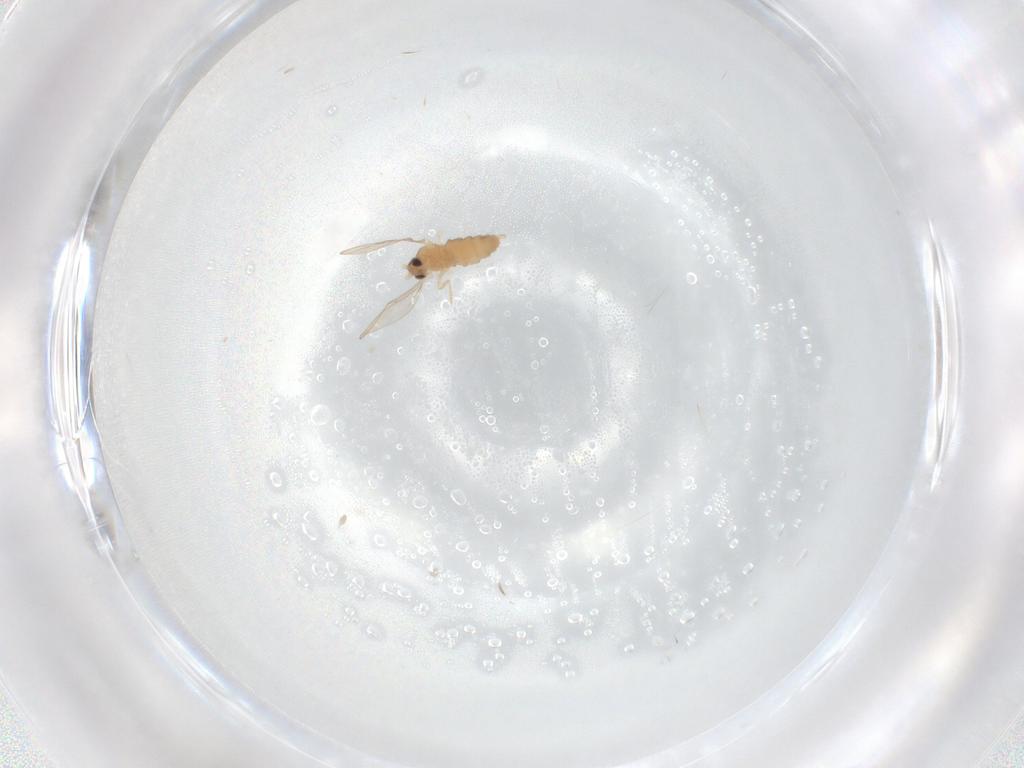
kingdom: Animalia
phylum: Arthropoda
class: Insecta
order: Diptera
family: Cecidomyiidae
